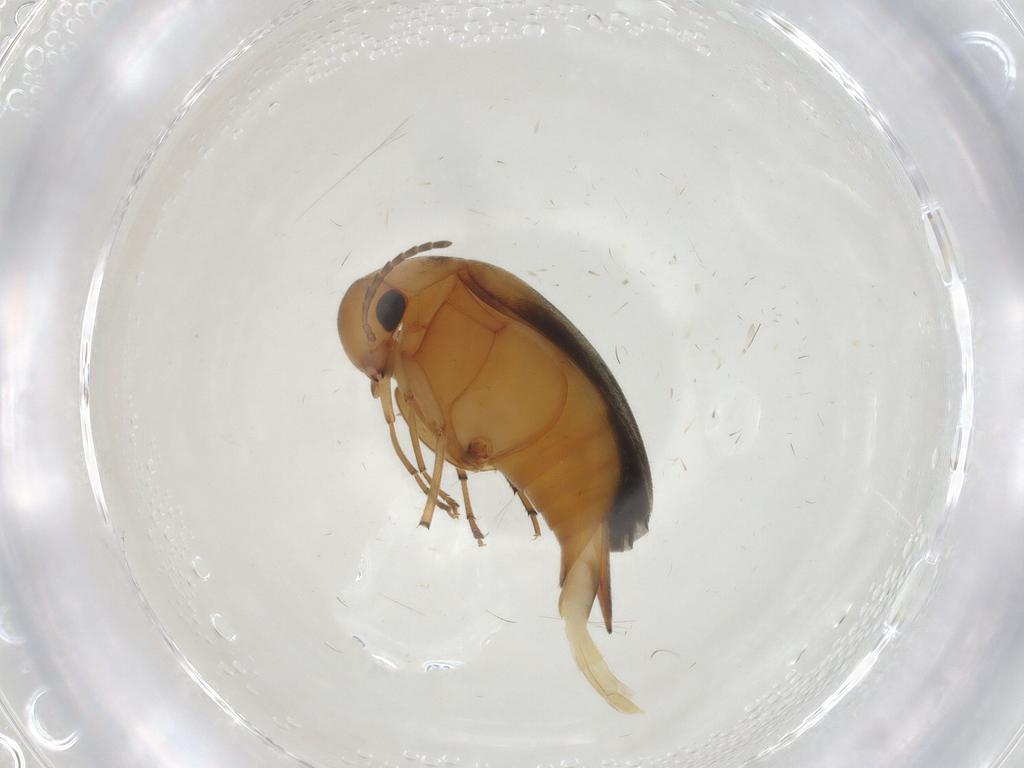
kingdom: Animalia
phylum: Arthropoda
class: Insecta
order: Coleoptera
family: Mordellidae
